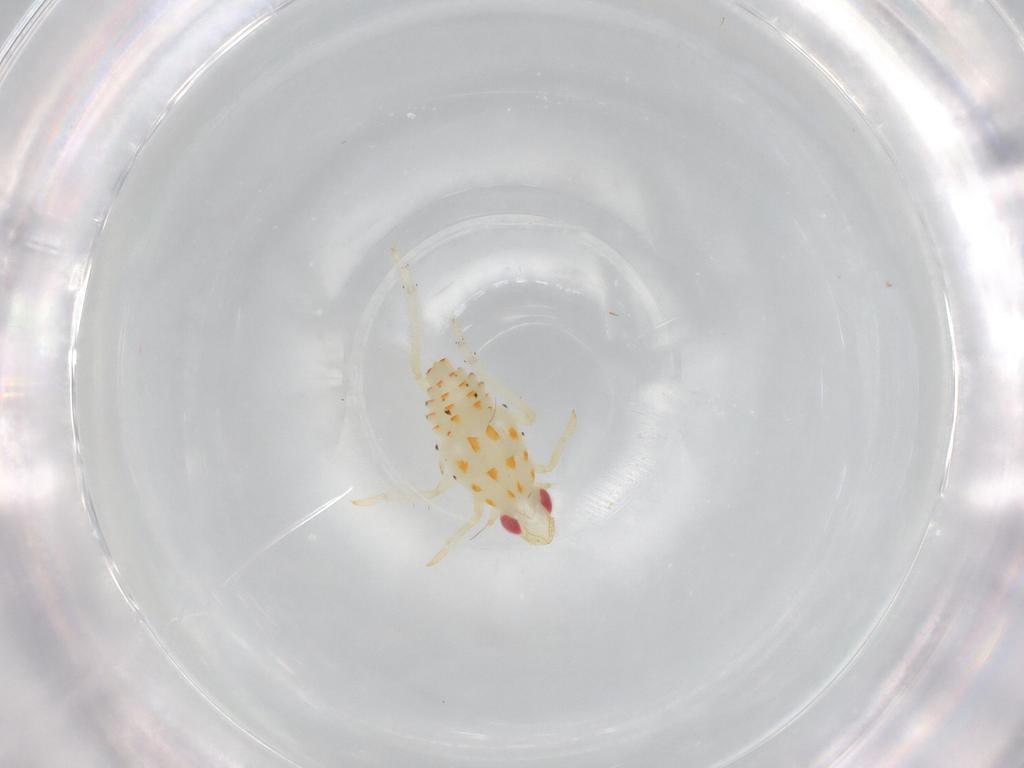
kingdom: Animalia
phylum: Arthropoda
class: Insecta
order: Hemiptera
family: Tropiduchidae
